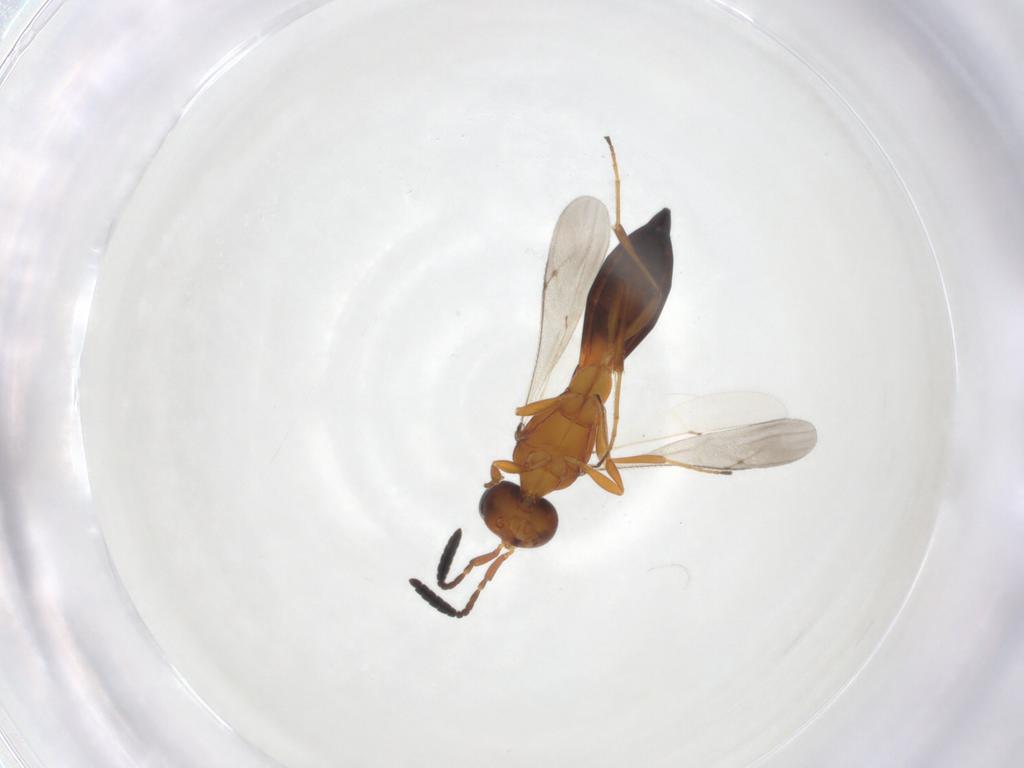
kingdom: Animalia
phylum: Arthropoda
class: Insecta
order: Hymenoptera
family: Scelionidae
